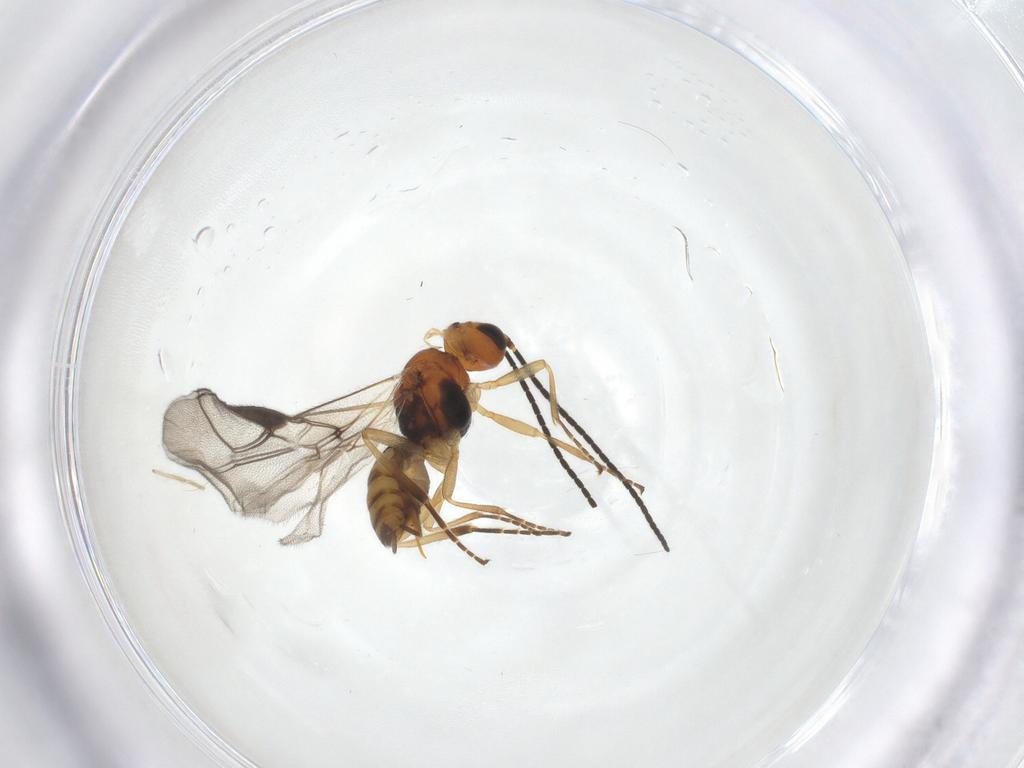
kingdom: Animalia
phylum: Arthropoda
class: Insecta
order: Hymenoptera
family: Braconidae
